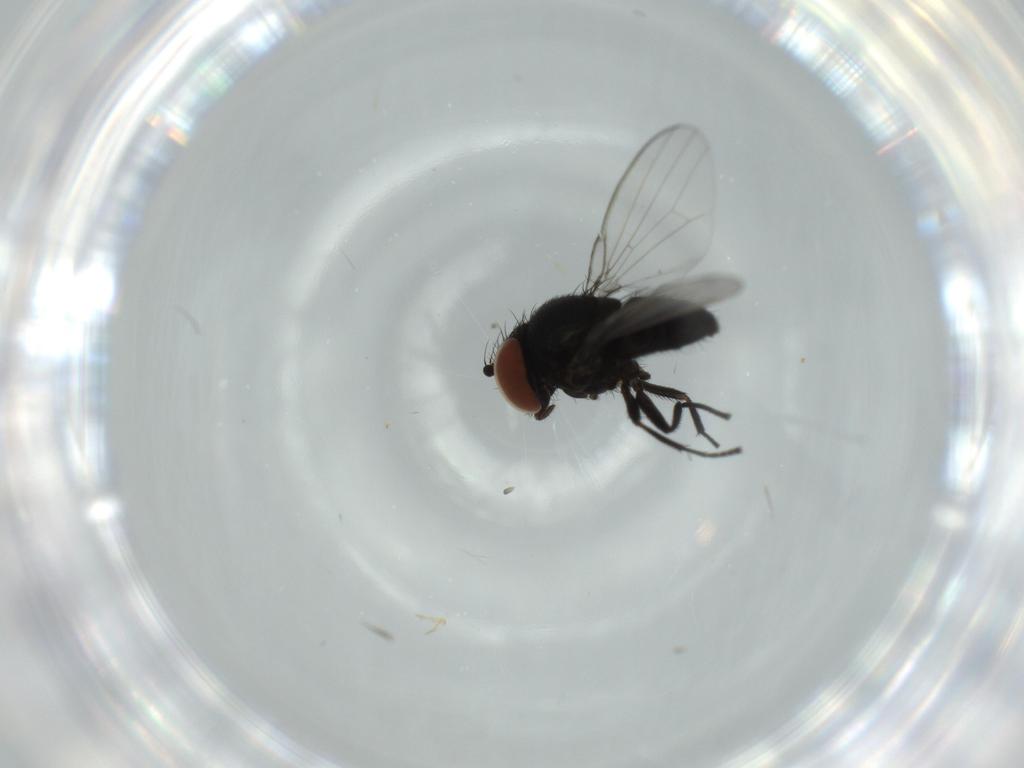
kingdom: Animalia
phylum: Arthropoda
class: Insecta
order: Diptera
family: Milichiidae
